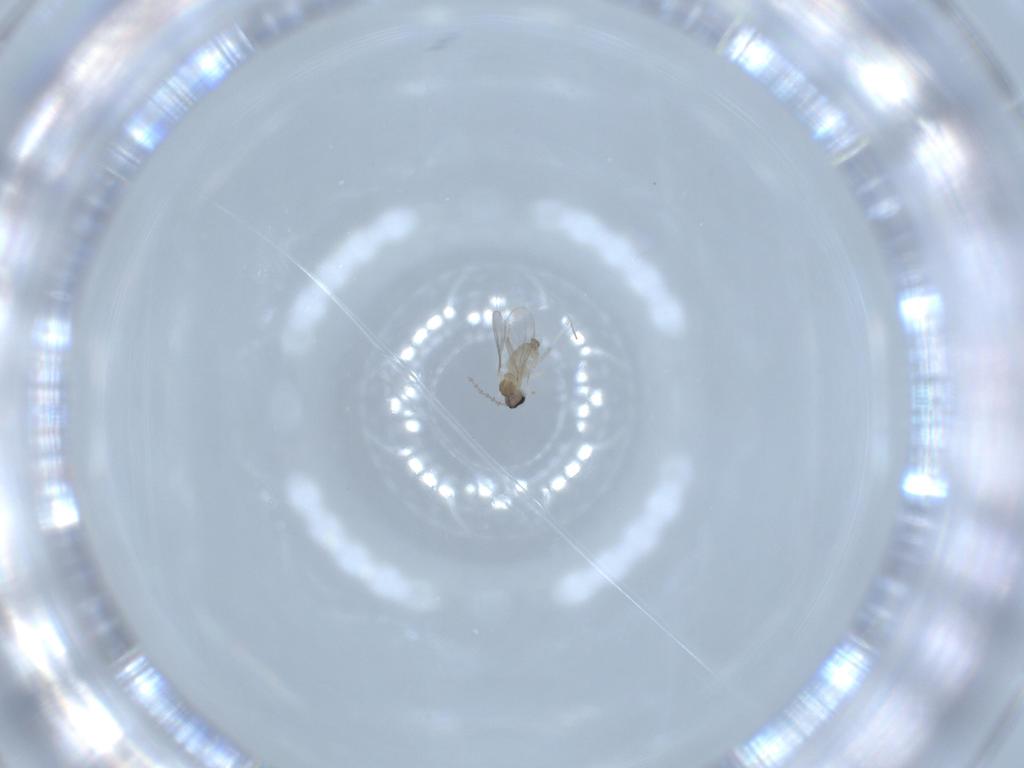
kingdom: Animalia
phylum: Arthropoda
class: Insecta
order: Diptera
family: Cecidomyiidae
